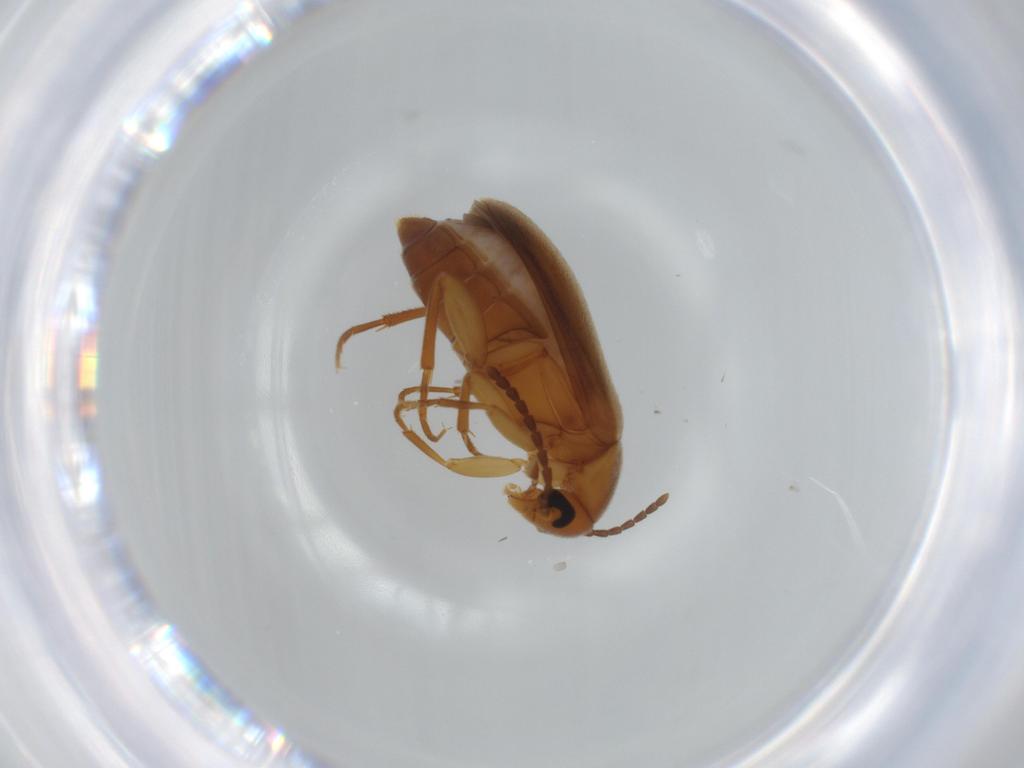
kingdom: Animalia
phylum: Arthropoda
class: Insecta
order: Coleoptera
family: Scraptiidae
